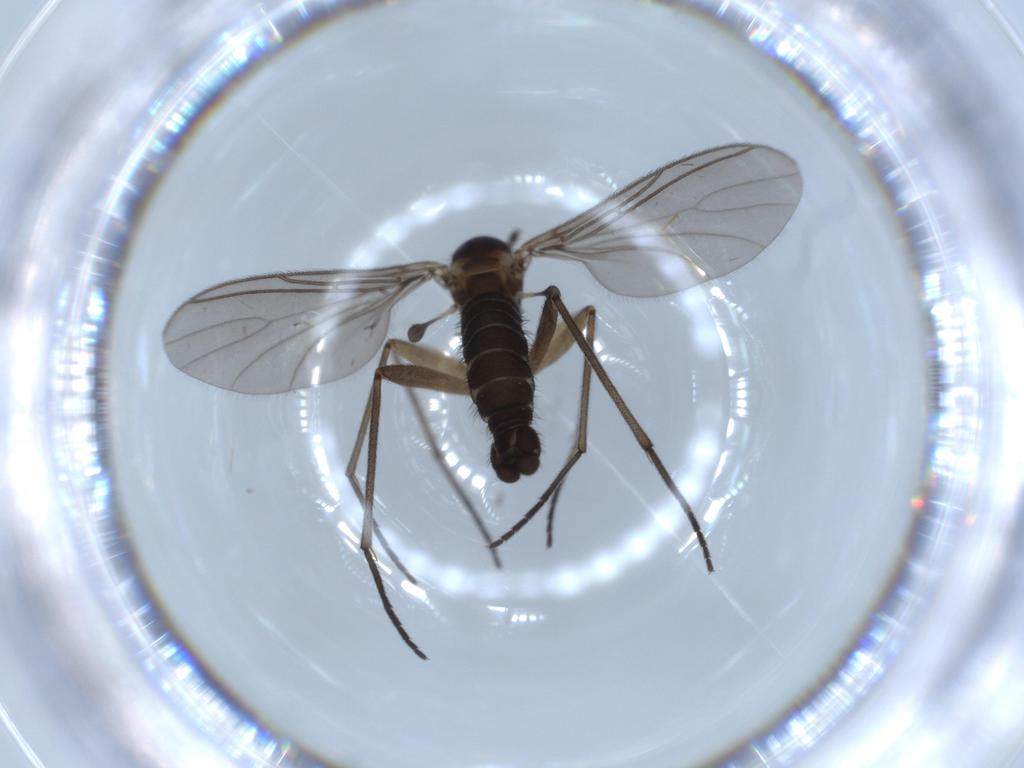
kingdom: Animalia
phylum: Arthropoda
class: Insecta
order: Diptera
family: Sciaridae
